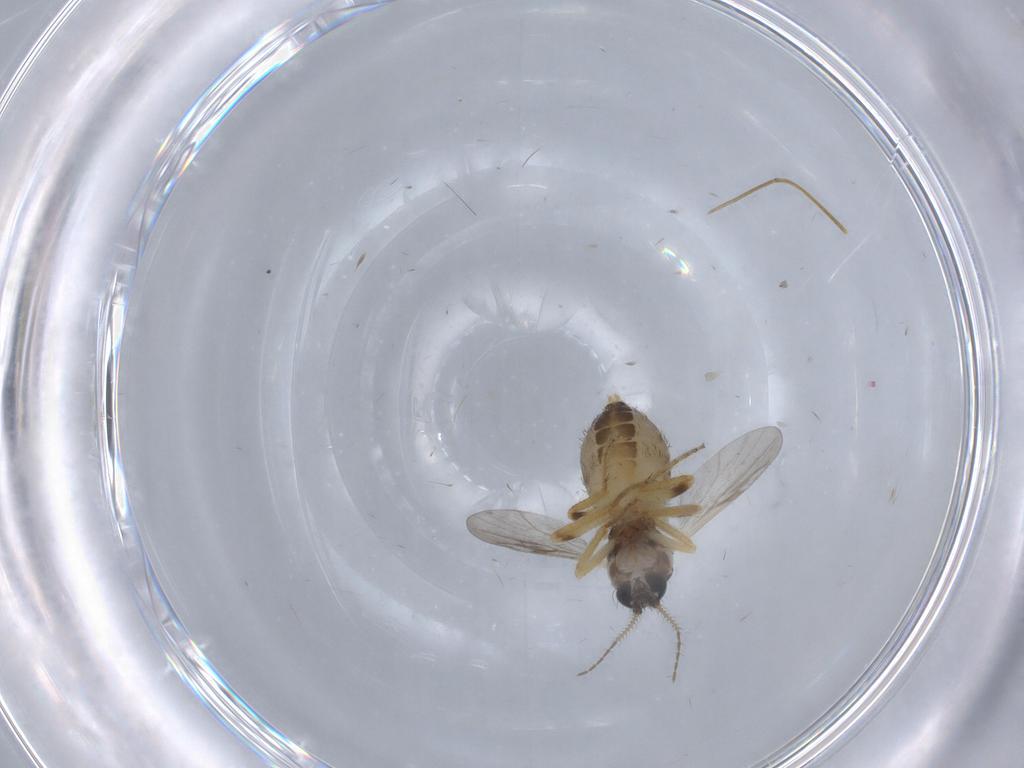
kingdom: Animalia
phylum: Arthropoda
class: Insecta
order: Diptera
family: Ceratopogonidae
